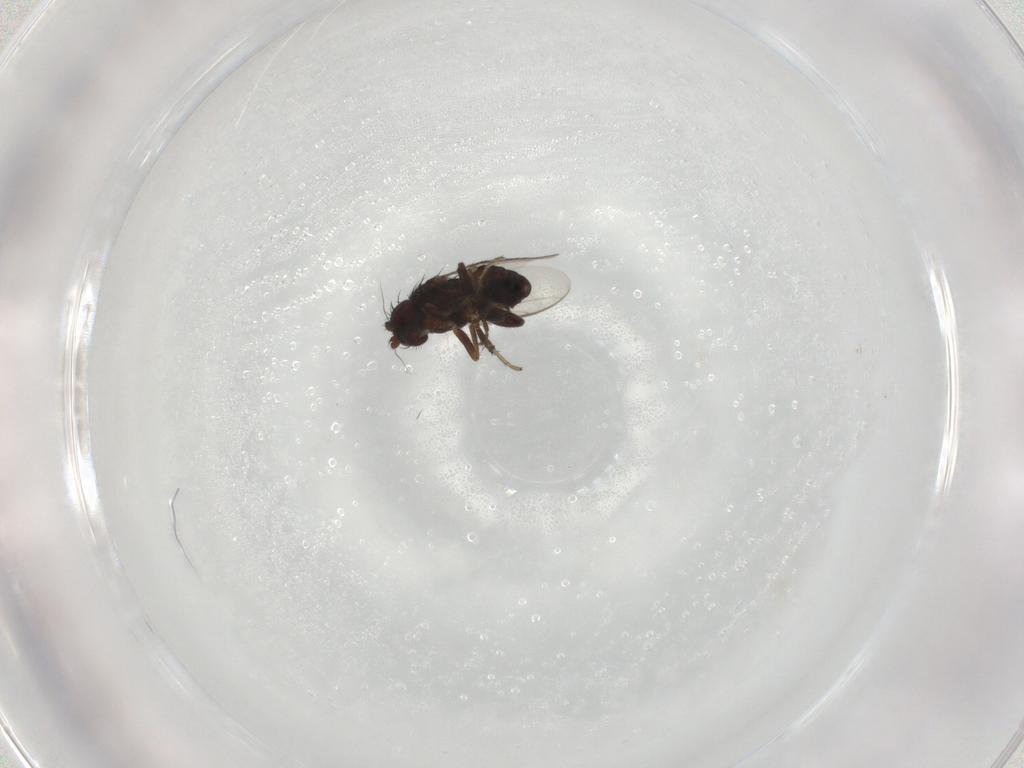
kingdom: Animalia
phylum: Arthropoda
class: Insecta
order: Diptera
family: Sphaeroceridae
